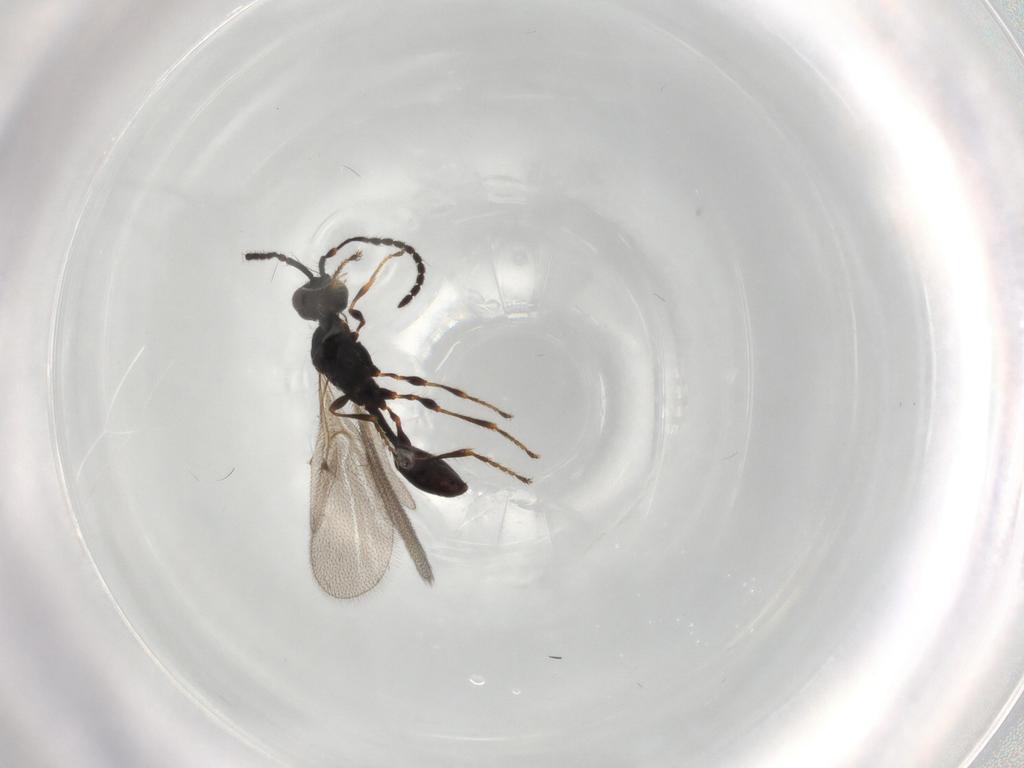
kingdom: Animalia
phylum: Arthropoda
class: Insecta
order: Hymenoptera
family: Diapriidae
